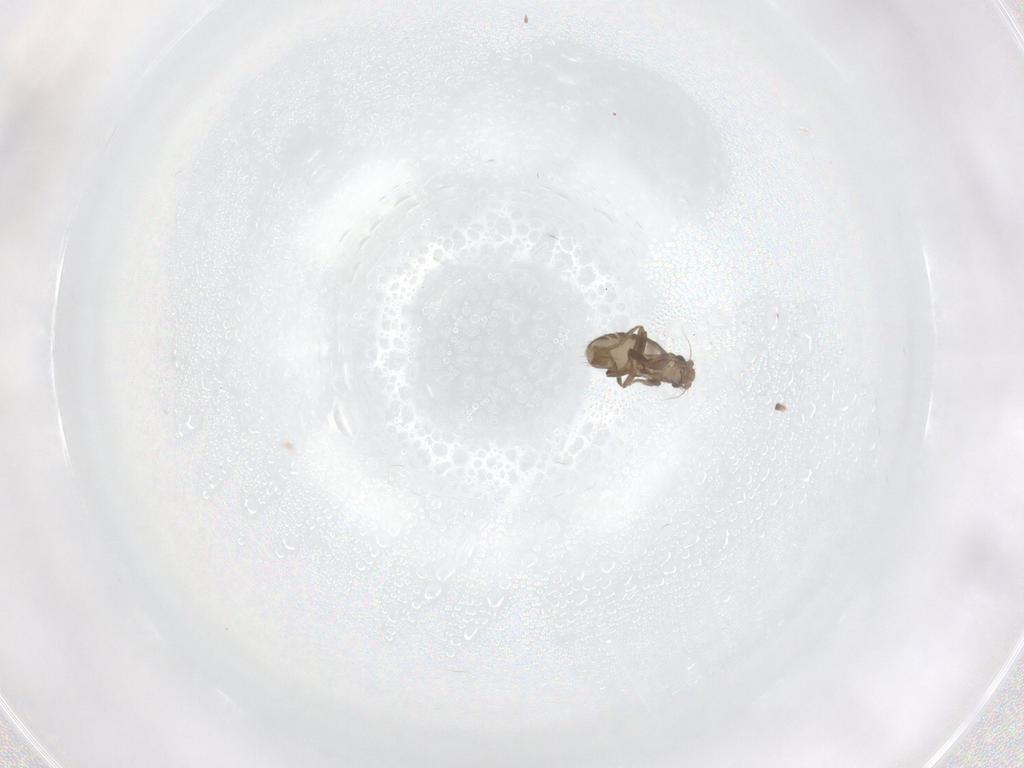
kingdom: Animalia
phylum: Arthropoda
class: Insecta
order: Diptera
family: Phoridae
